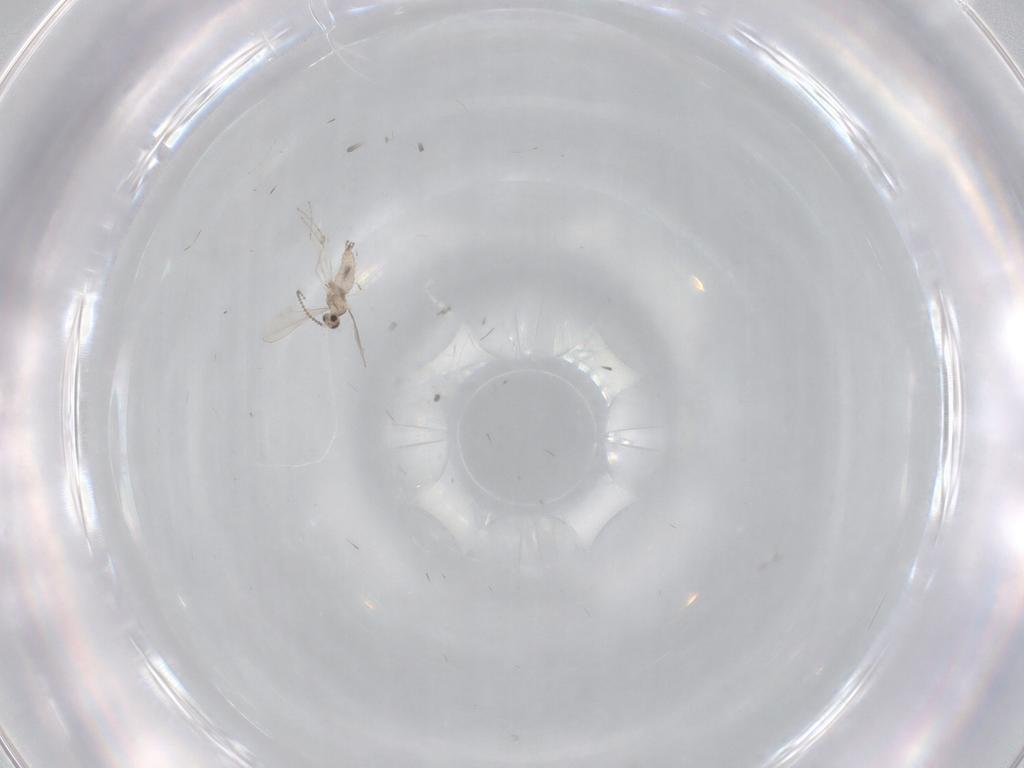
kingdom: Animalia
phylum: Arthropoda
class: Insecta
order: Diptera
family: Cecidomyiidae
